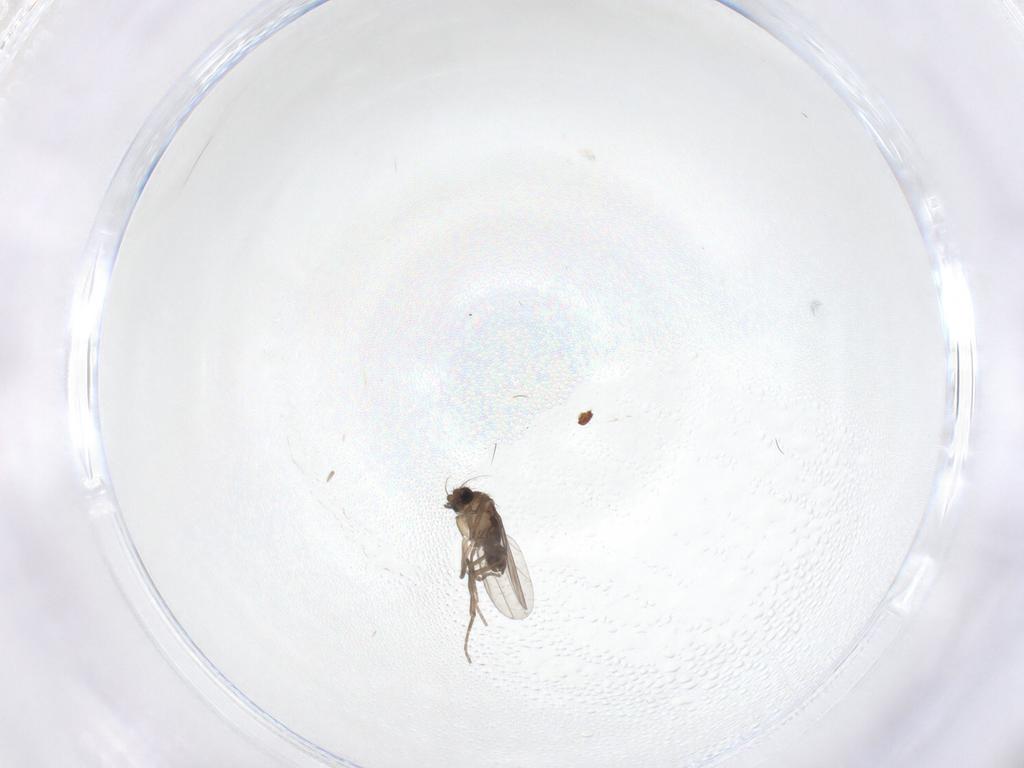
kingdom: Animalia
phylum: Arthropoda
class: Insecta
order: Diptera
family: Phoridae
